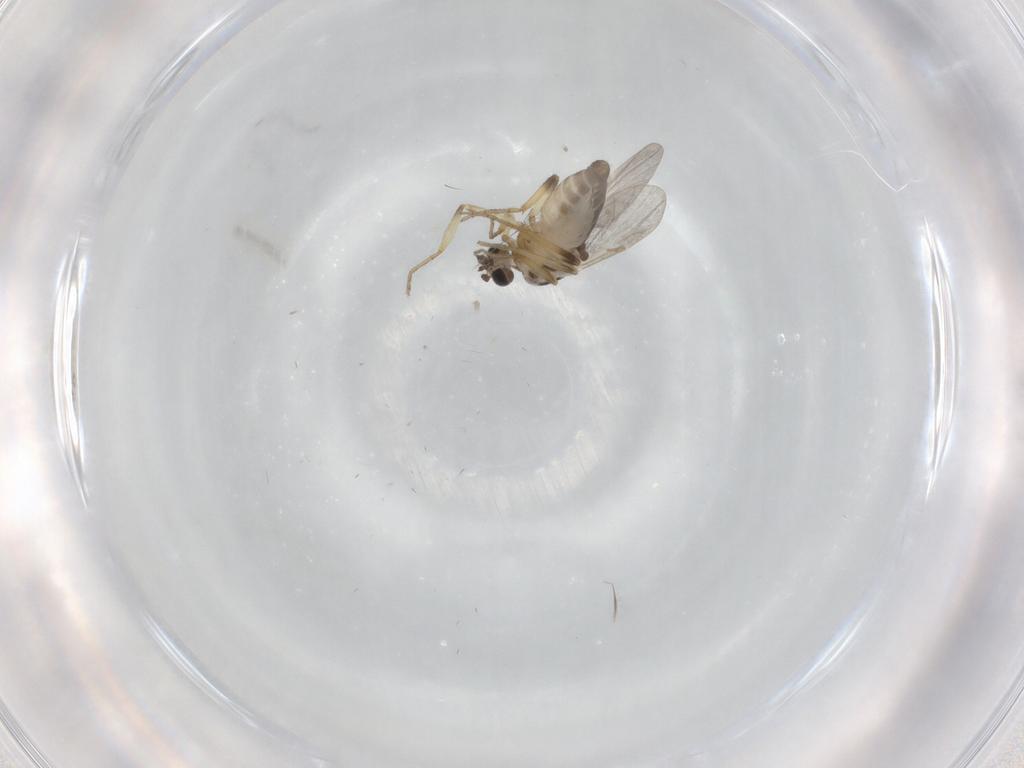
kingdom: Animalia
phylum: Arthropoda
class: Insecta
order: Diptera
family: Ceratopogonidae
